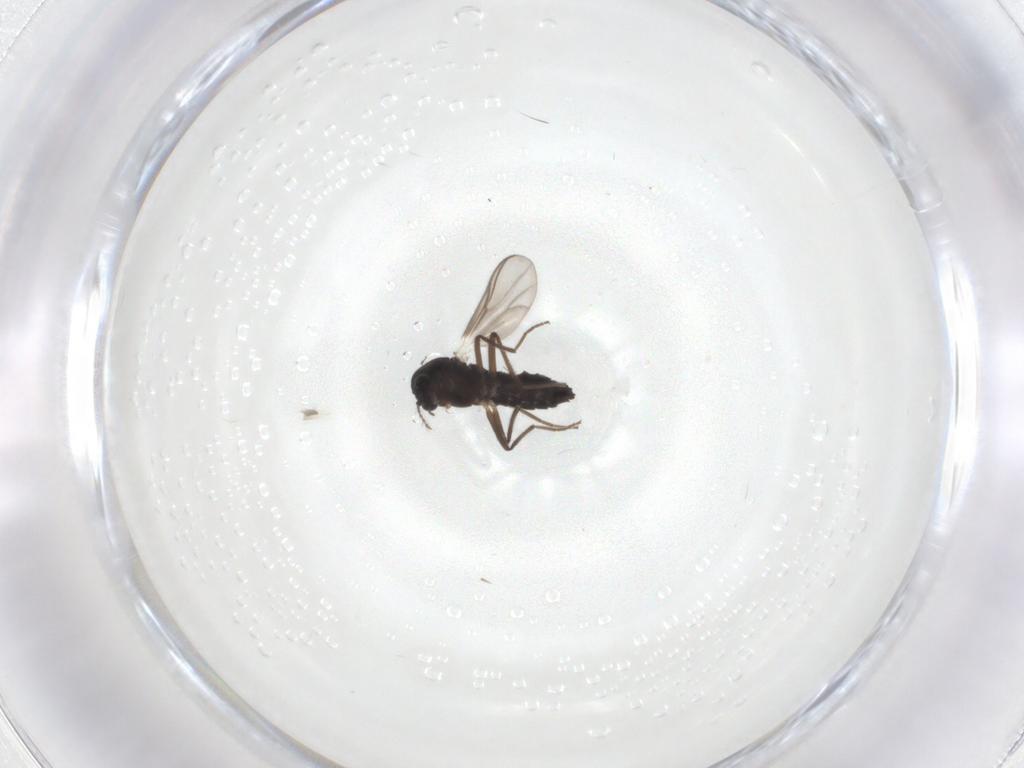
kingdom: Animalia
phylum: Arthropoda
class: Insecta
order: Diptera
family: Chironomidae
